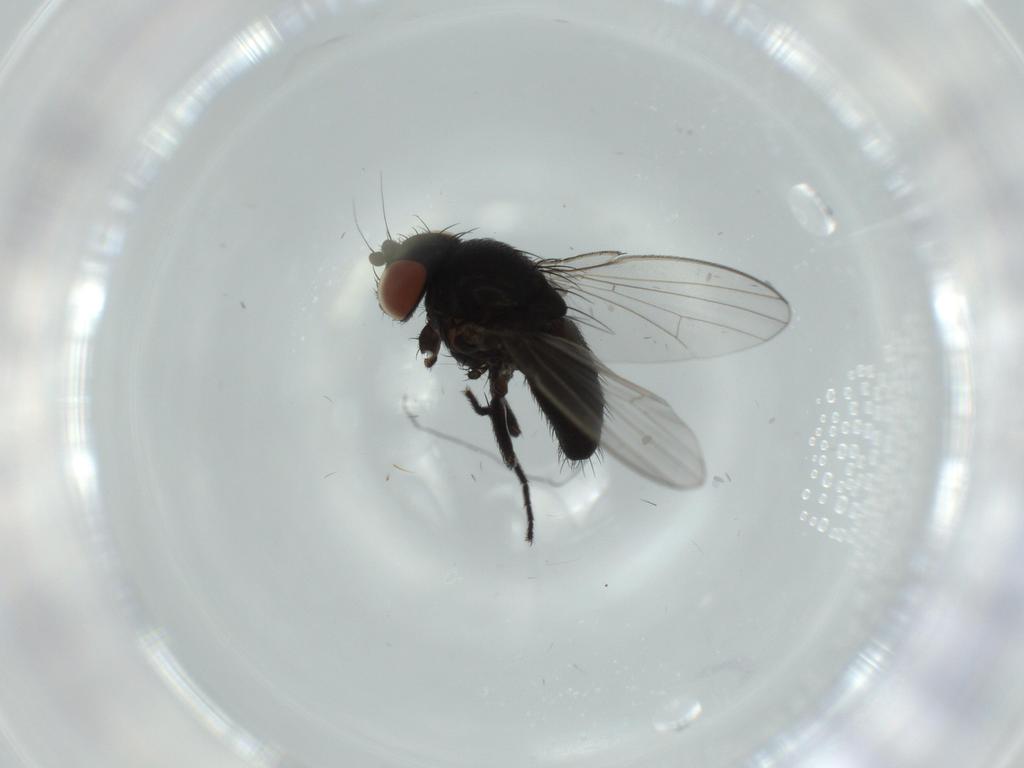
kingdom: Animalia
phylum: Arthropoda
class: Insecta
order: Diptera
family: Milichiidae
